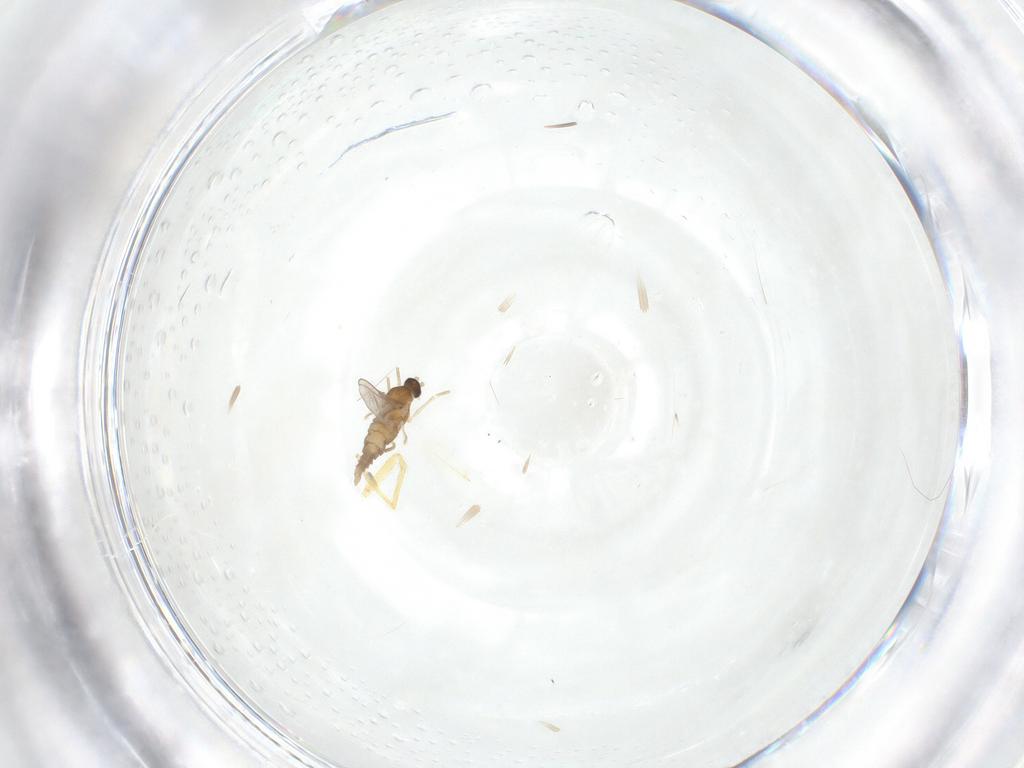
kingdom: Animalia
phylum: Arthropoda
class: Insecta
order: Diptera
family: Cecidomyiidae
